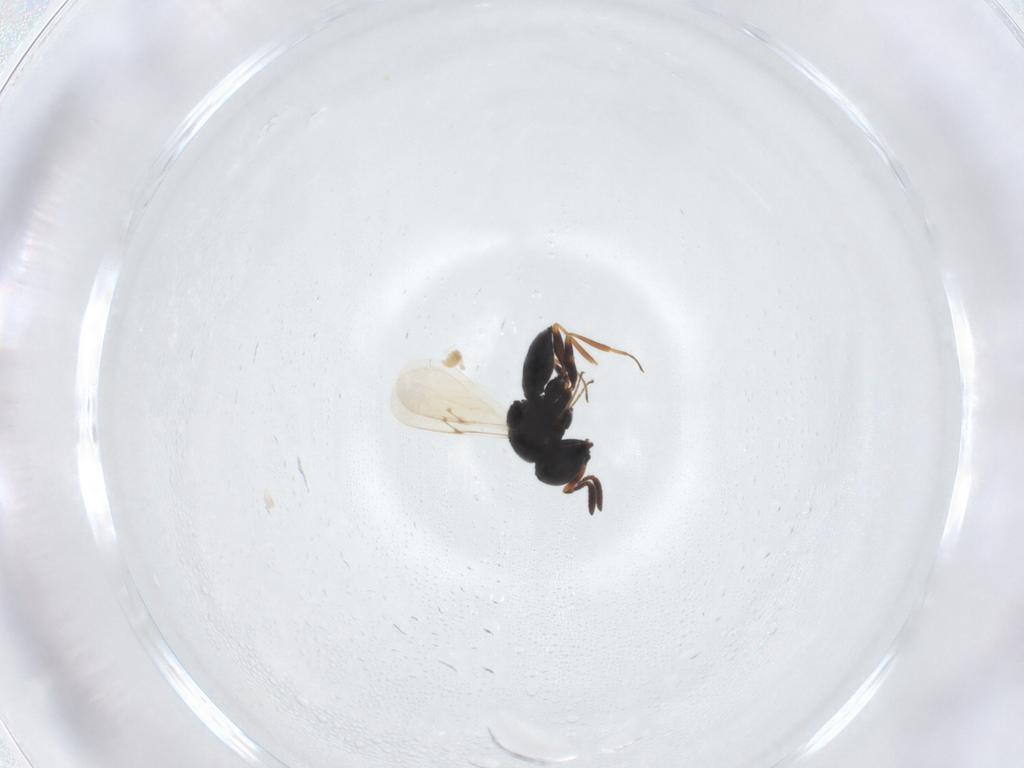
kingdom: Animalia
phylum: Arthropoda
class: Insecta
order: Hymenoptera
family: Scelionidae
